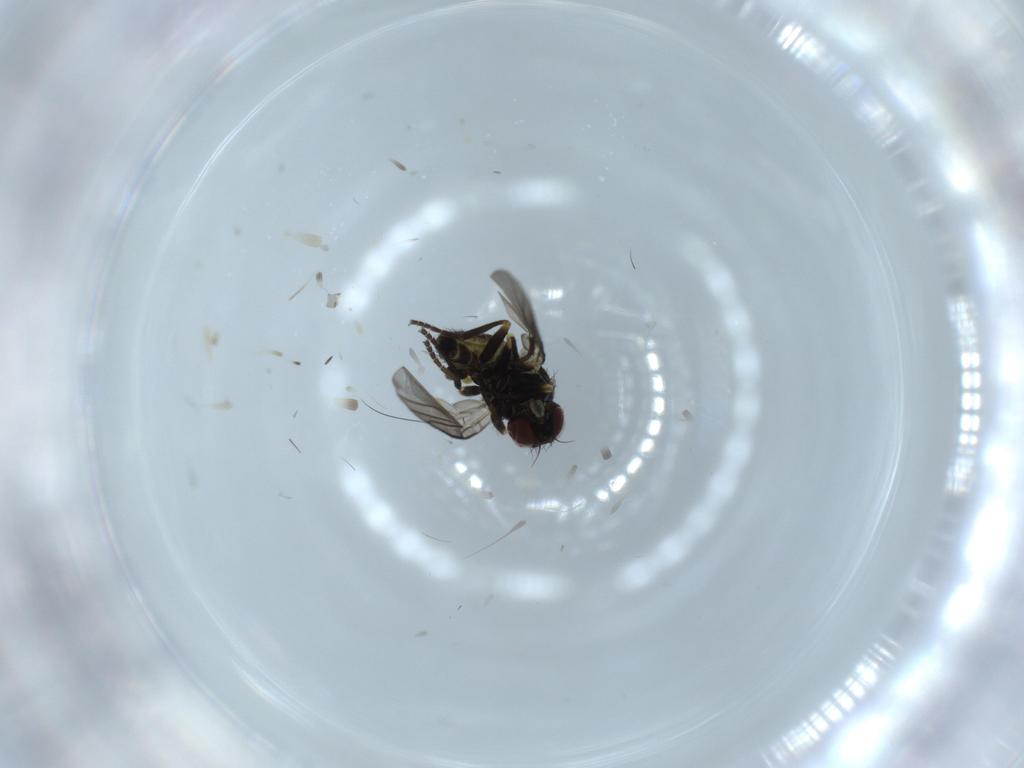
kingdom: Animalia
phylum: Arthropoda
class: Insecta
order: Diptera
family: Agromyzidae
